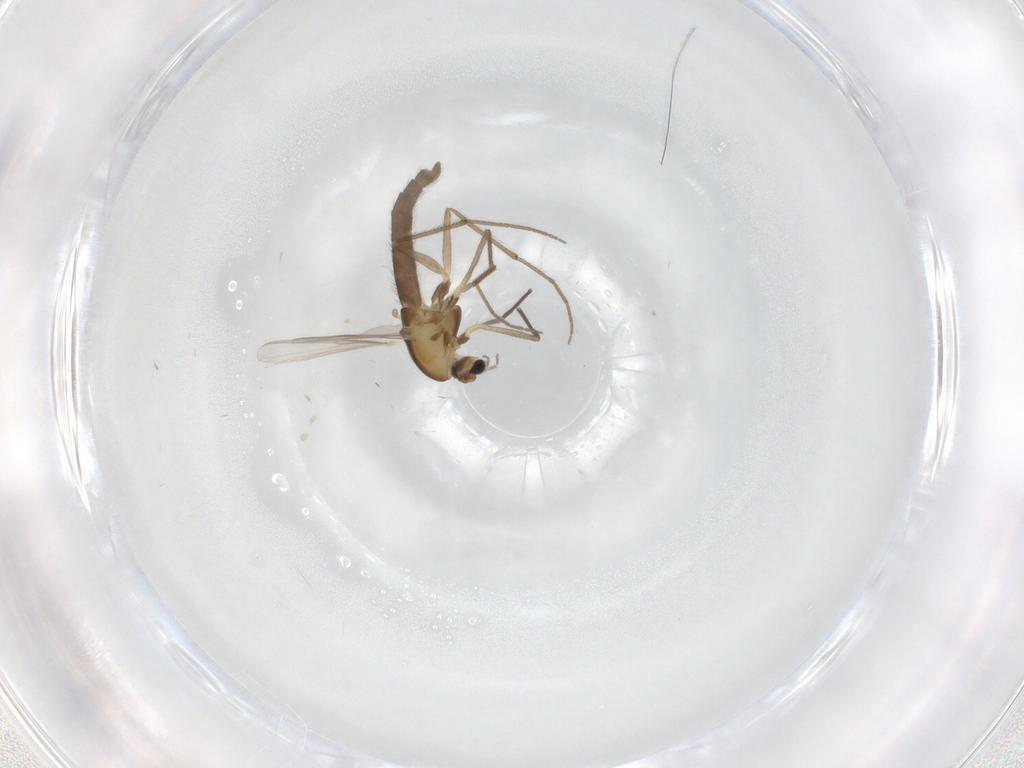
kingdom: Animalia
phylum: Arthropoda
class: Insecta
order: Diptera
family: Chironomidae
